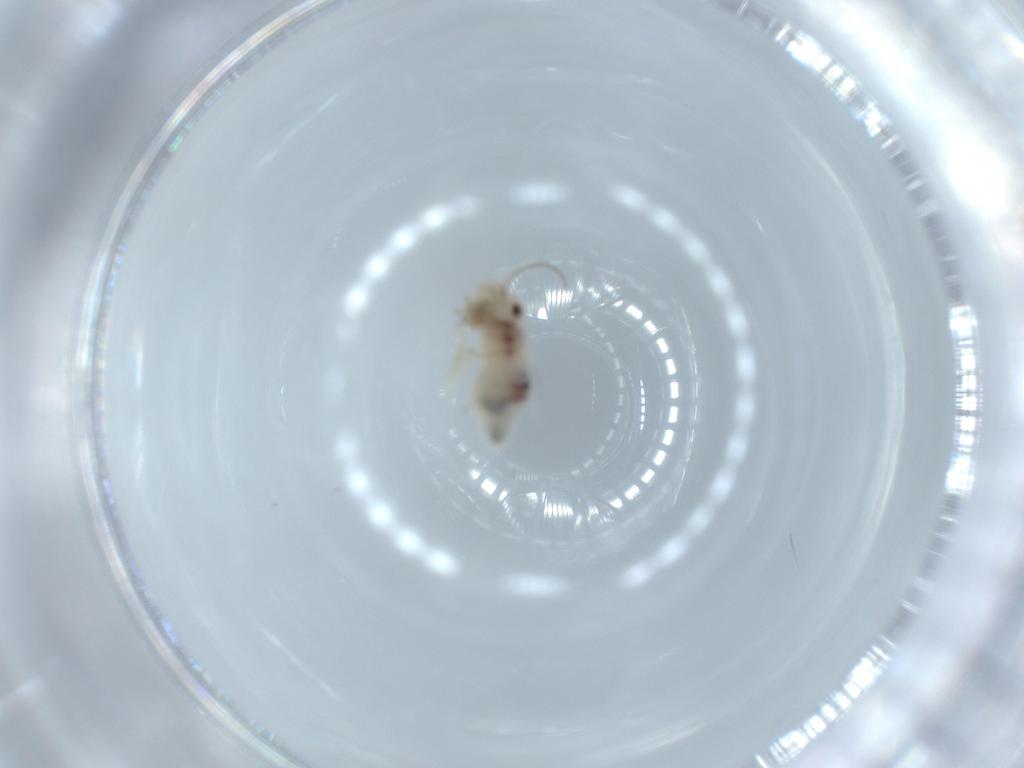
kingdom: Animalia
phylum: Arthropoda
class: Insecta
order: Psocodea
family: Caeciliusidae
